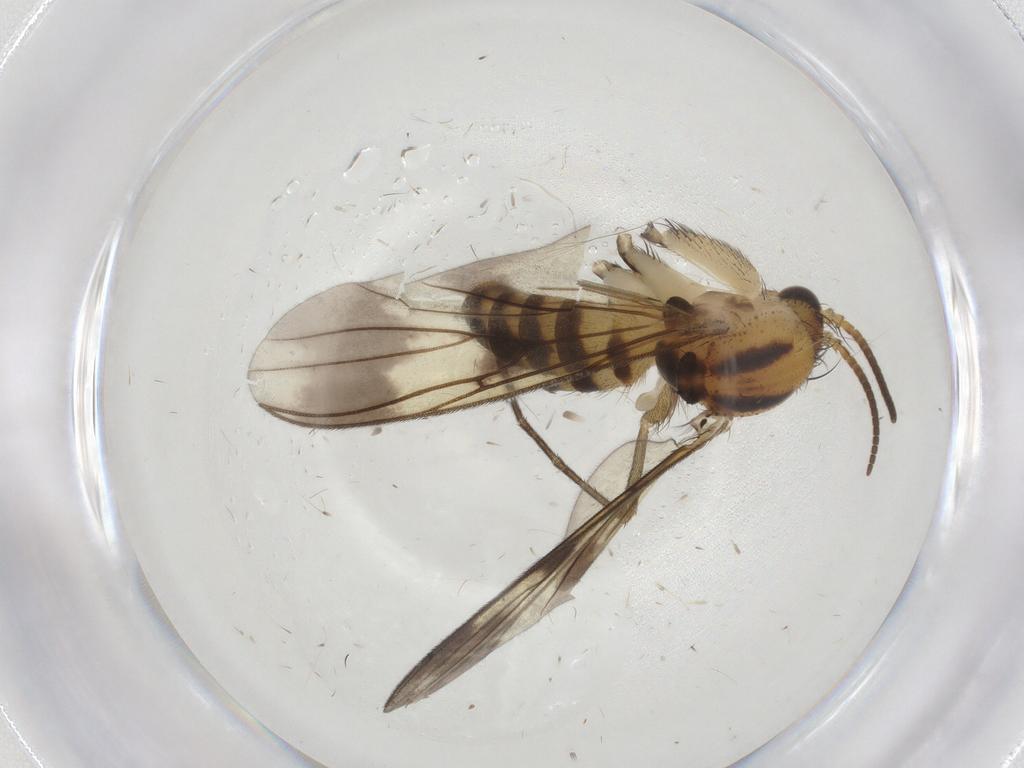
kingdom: Animalia
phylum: Arthropoda
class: Insecta
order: Diptera
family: Mycetophilidae
